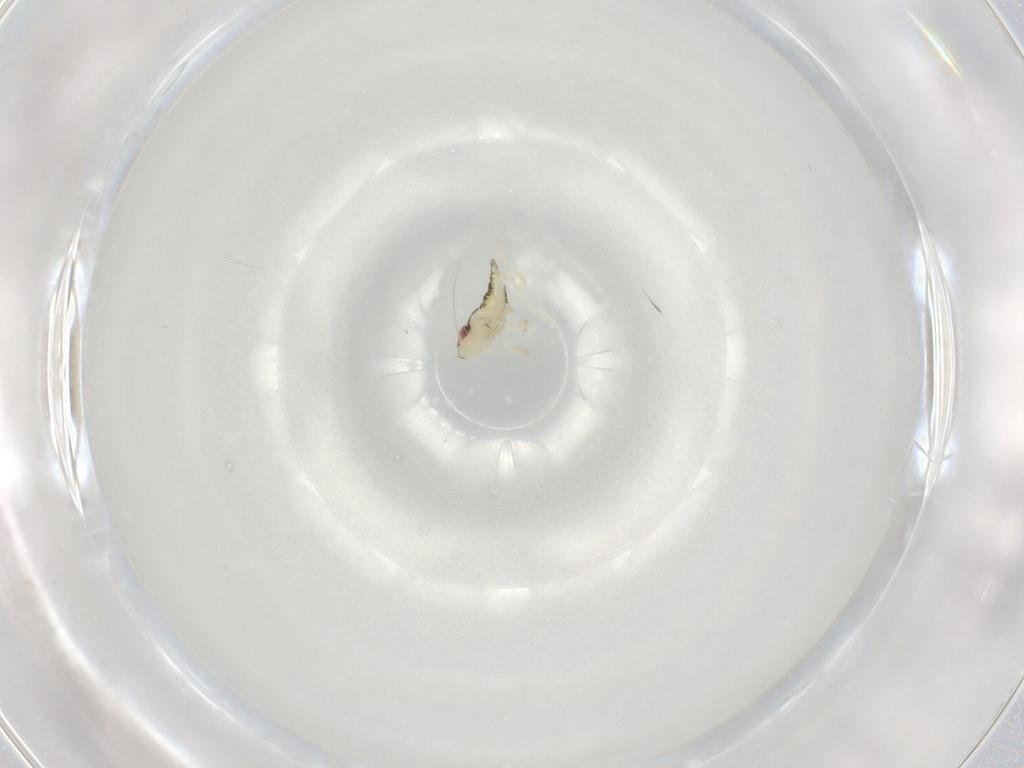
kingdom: Animalia
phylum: Arthropoda
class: Insecta
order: Hemiptera
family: Cicadellidae
